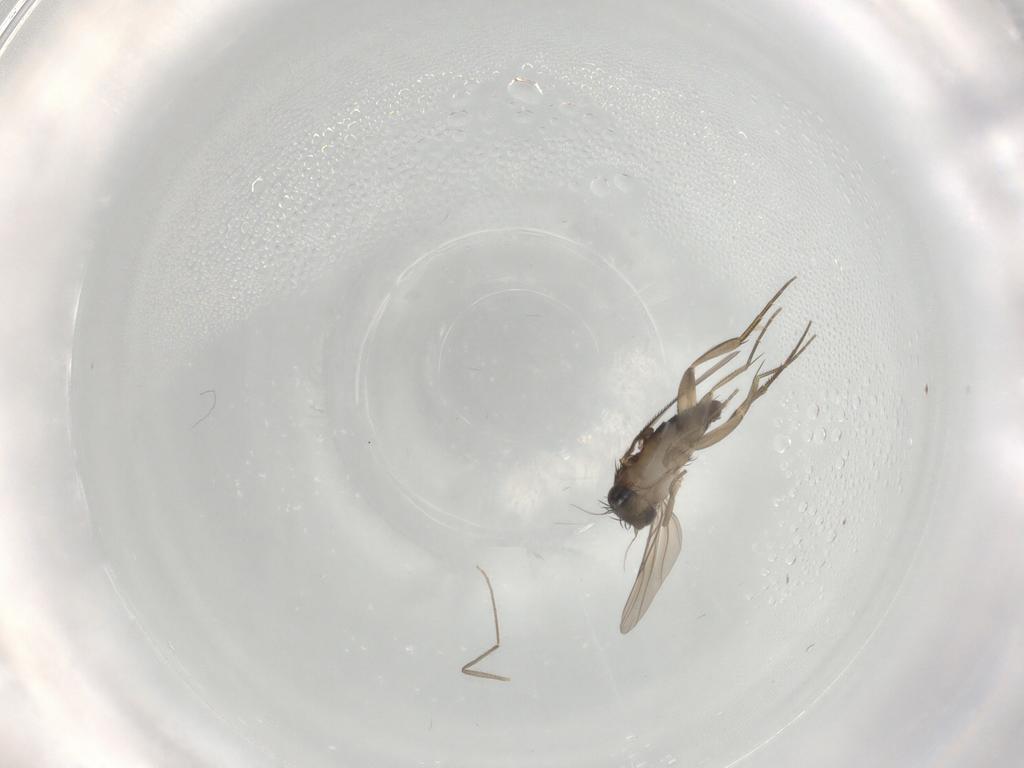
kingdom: Animalia
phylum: Arthropoda
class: Insecta
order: Diptera
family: Phoridae
